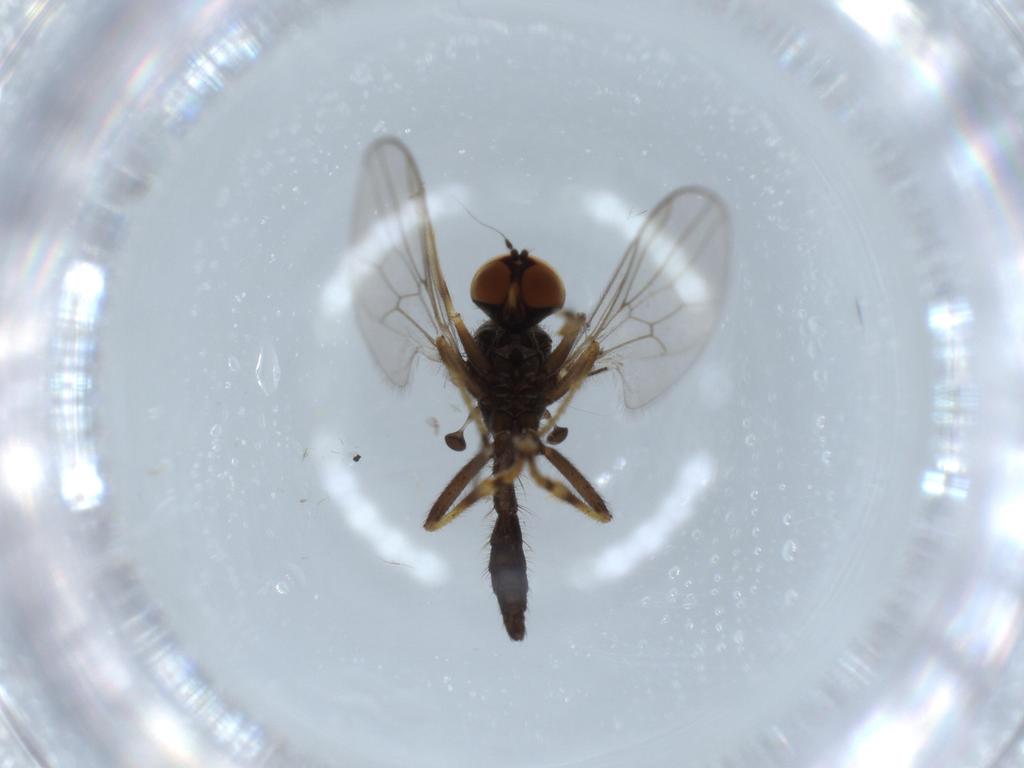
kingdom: Animalia
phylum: Arthropoda
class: Insecta
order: Diptera
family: Hybotidae
